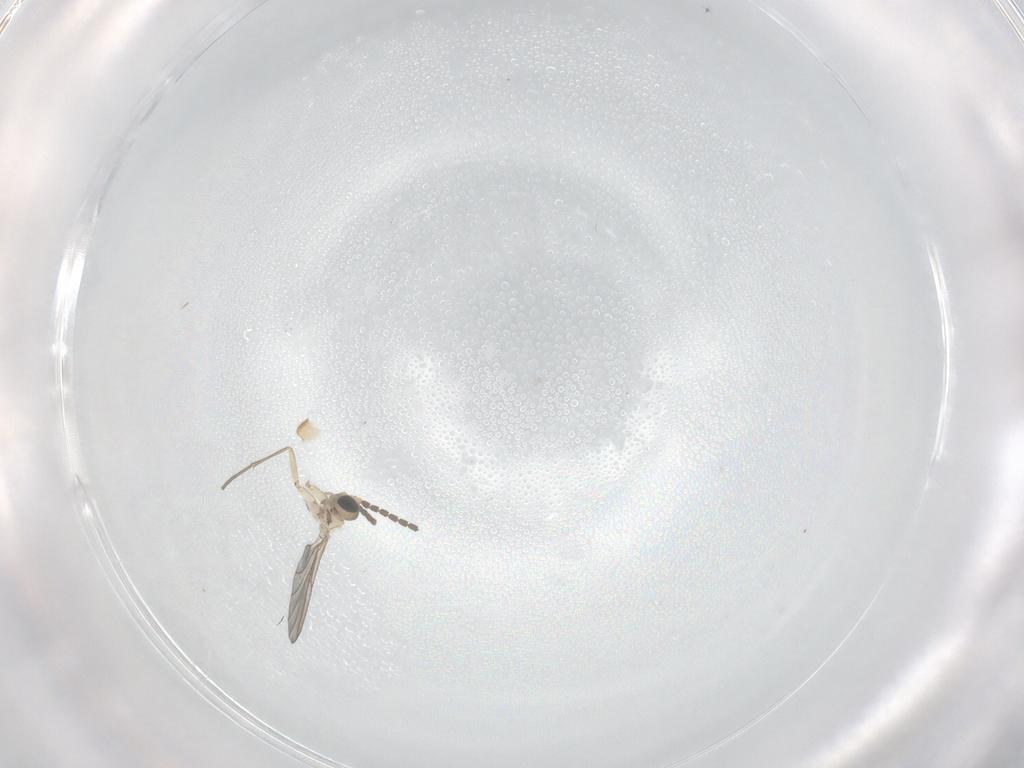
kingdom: Animalia
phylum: Arthropoda
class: Insecta
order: Diptera
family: Sciaridae
